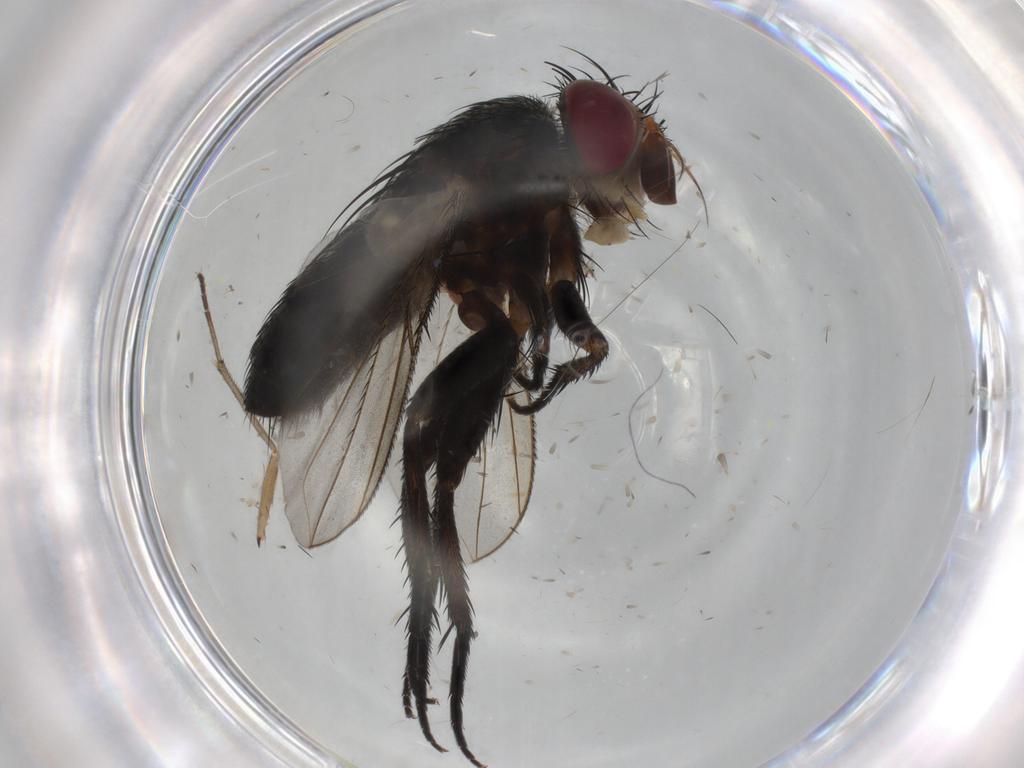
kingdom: Animalia
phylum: Arthropoda
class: Insecta
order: Diptera
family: Tachinidae
